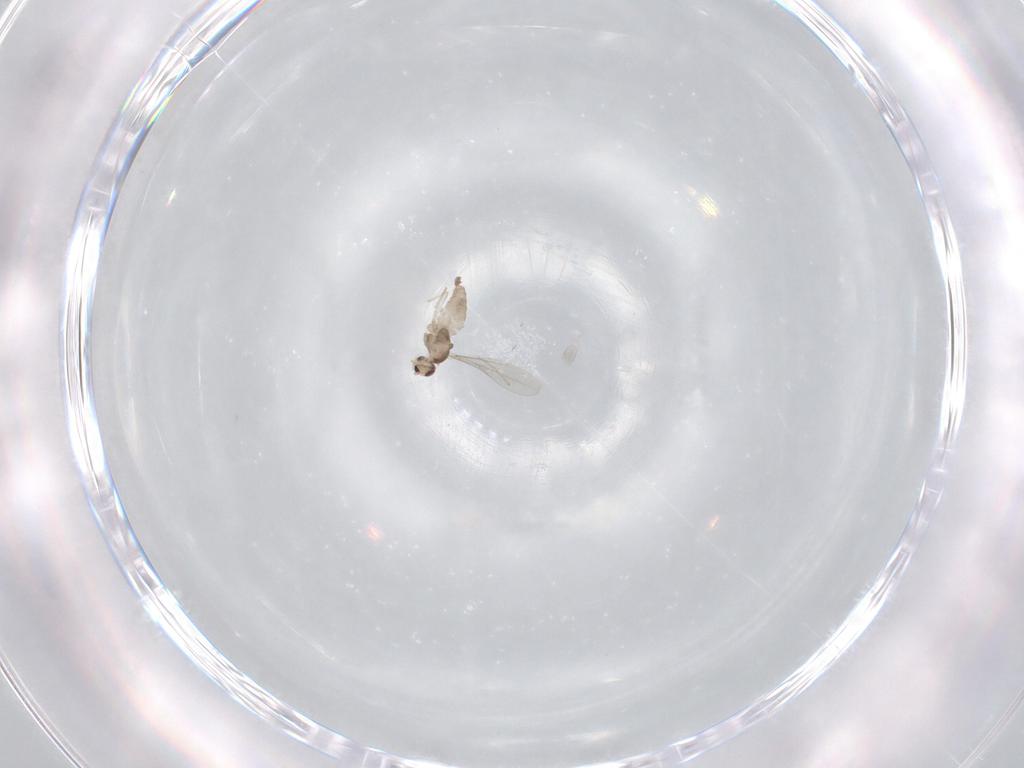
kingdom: Animalia
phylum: Arthropoda
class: Insecta
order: Diptera
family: Cecidomyiidae
